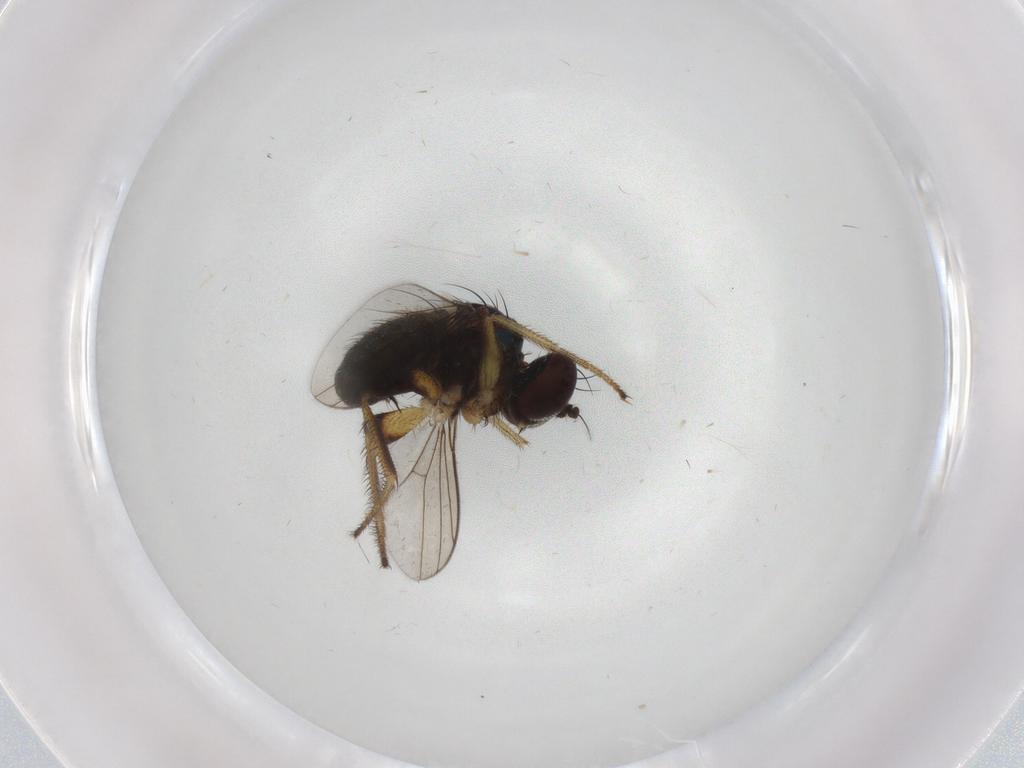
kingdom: Animalia
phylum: Arthropoda
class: Insecta
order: Diptera
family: Dolichopodidae
